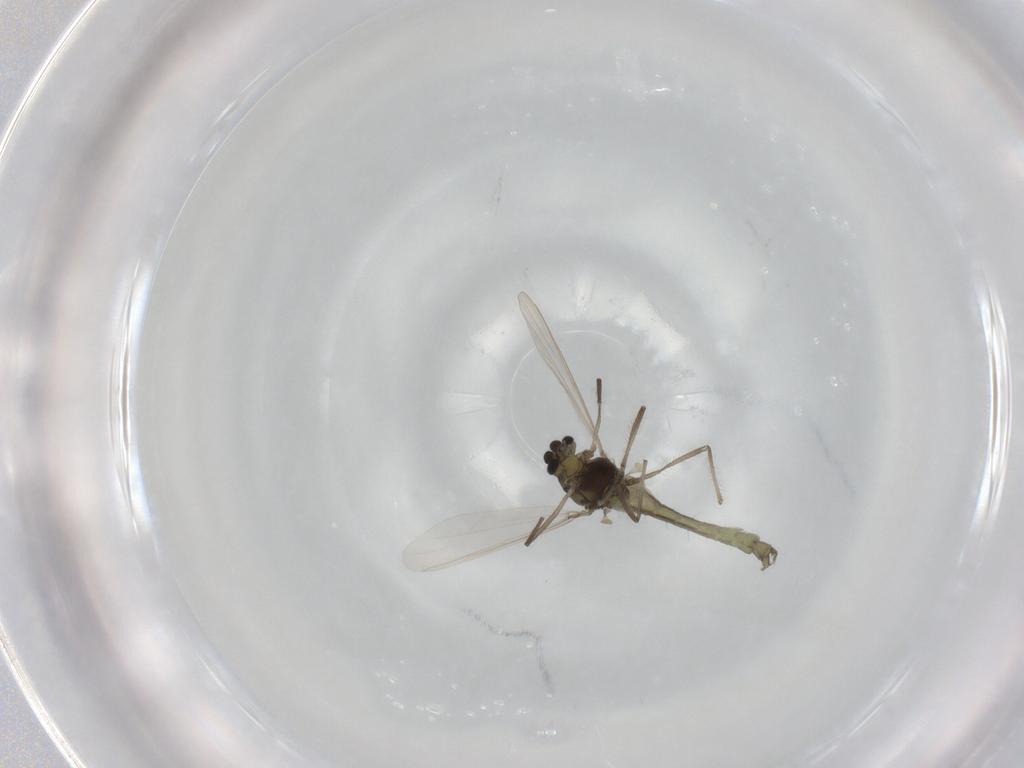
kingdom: Animalia
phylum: Arthropoda
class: Insecta
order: Diptera
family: Chironomidae
